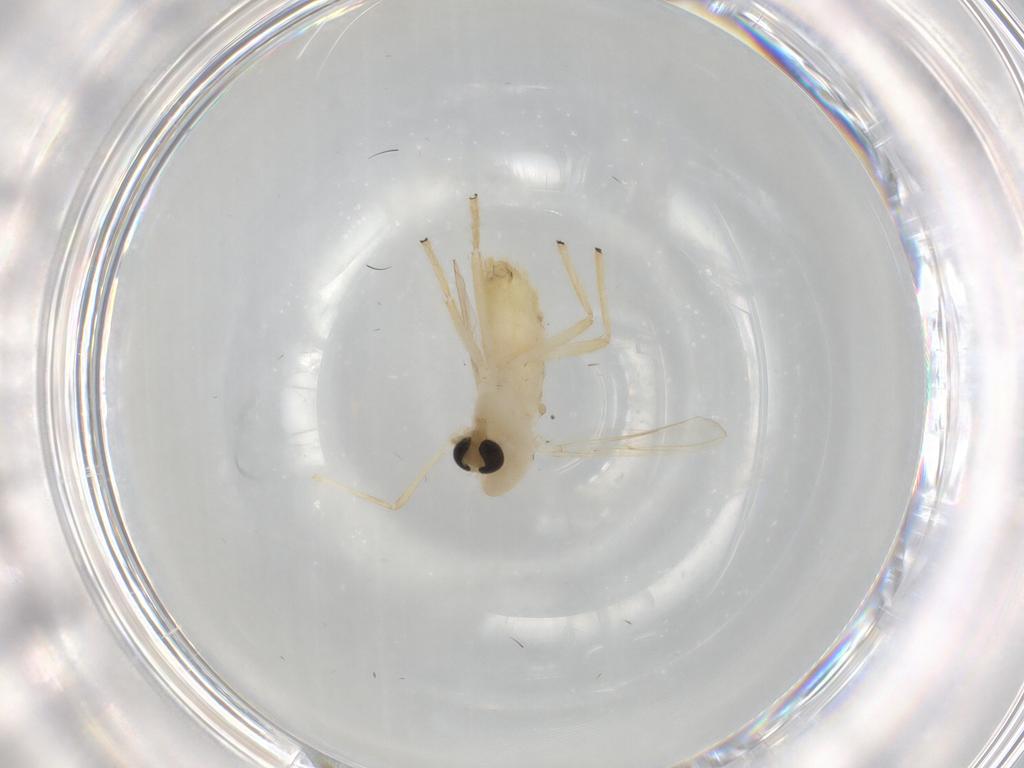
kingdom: Animalia
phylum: Arthropoda
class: Insecta
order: Diptera
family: Chironomidae
